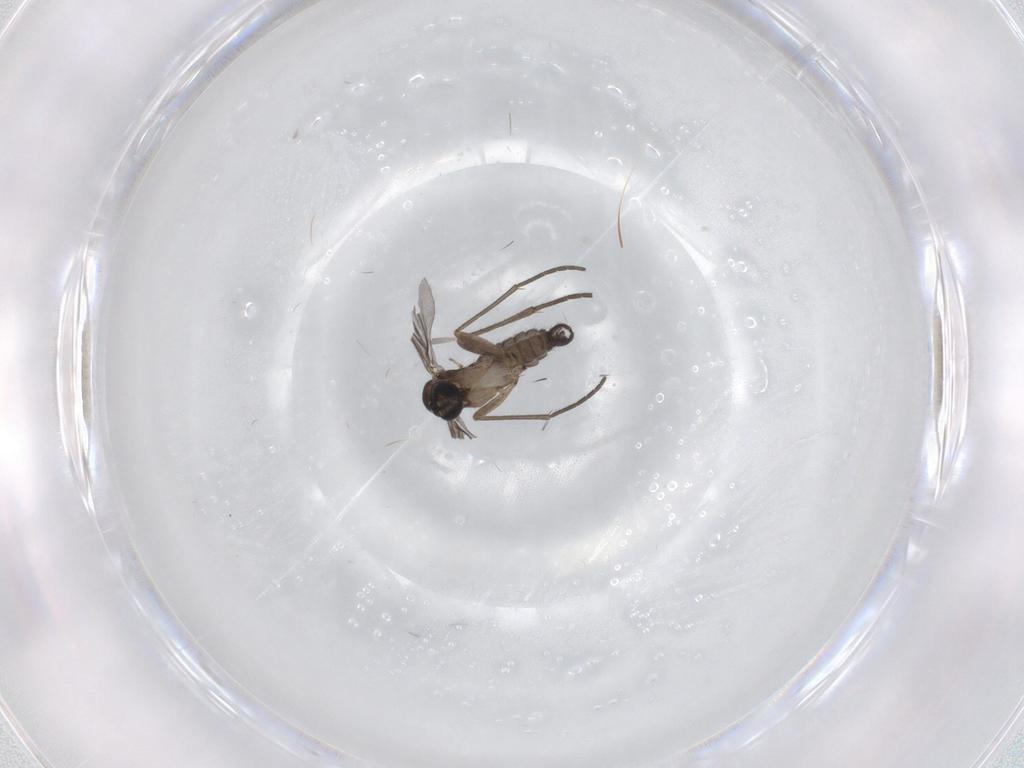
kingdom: Animalia
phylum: Arthropoda
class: Insecta
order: Diptera
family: Sciaridae
